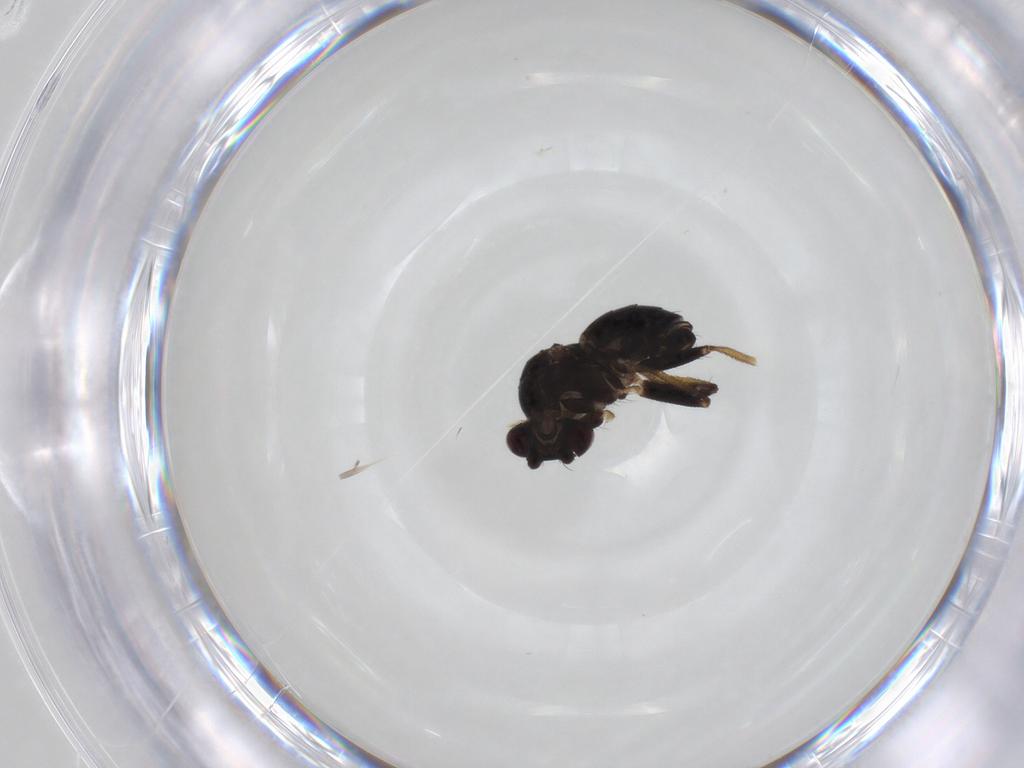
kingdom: Animalia
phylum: Arthropoda
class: Insecta
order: Diptera
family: Inbiomyiidae
